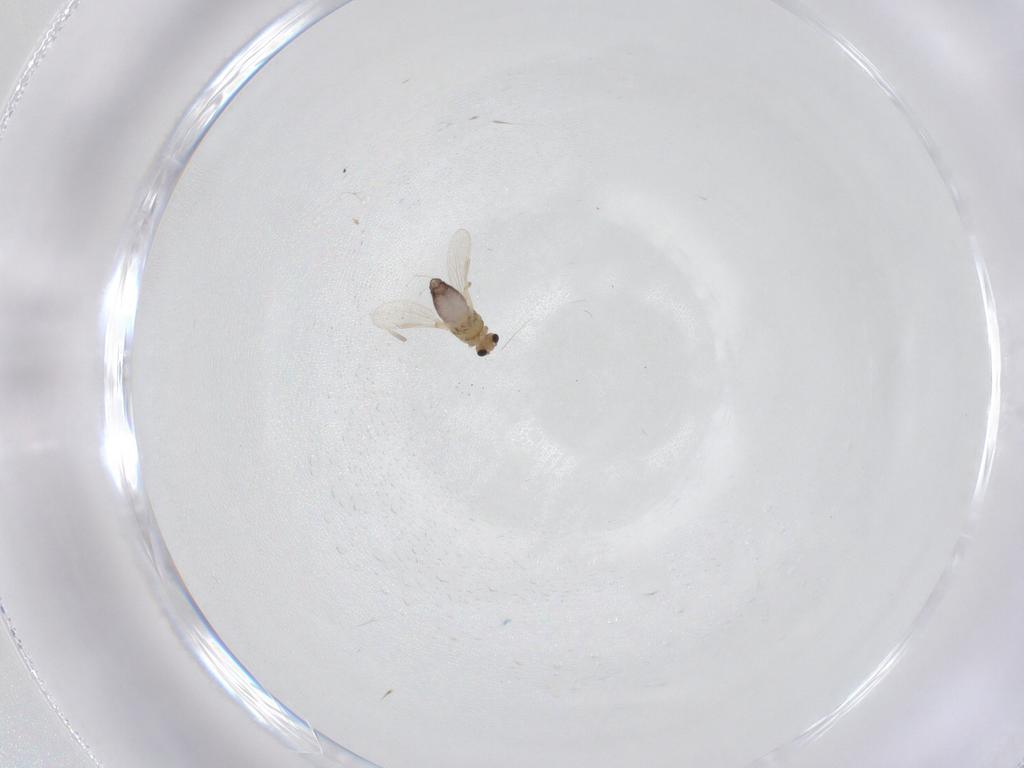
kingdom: Animalia
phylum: Arthropoda
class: Insecta
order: Diptera
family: Chironomidae
